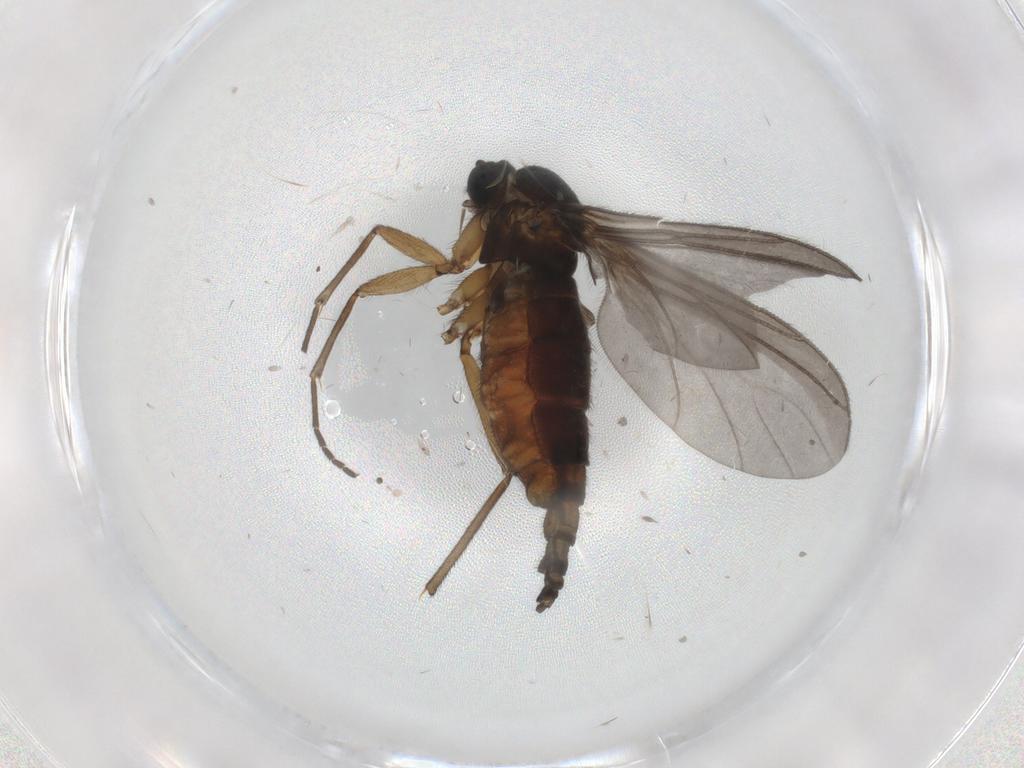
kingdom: Animalia
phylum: Arthropoda
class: Insecta
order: Diptera
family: Sciaridae
